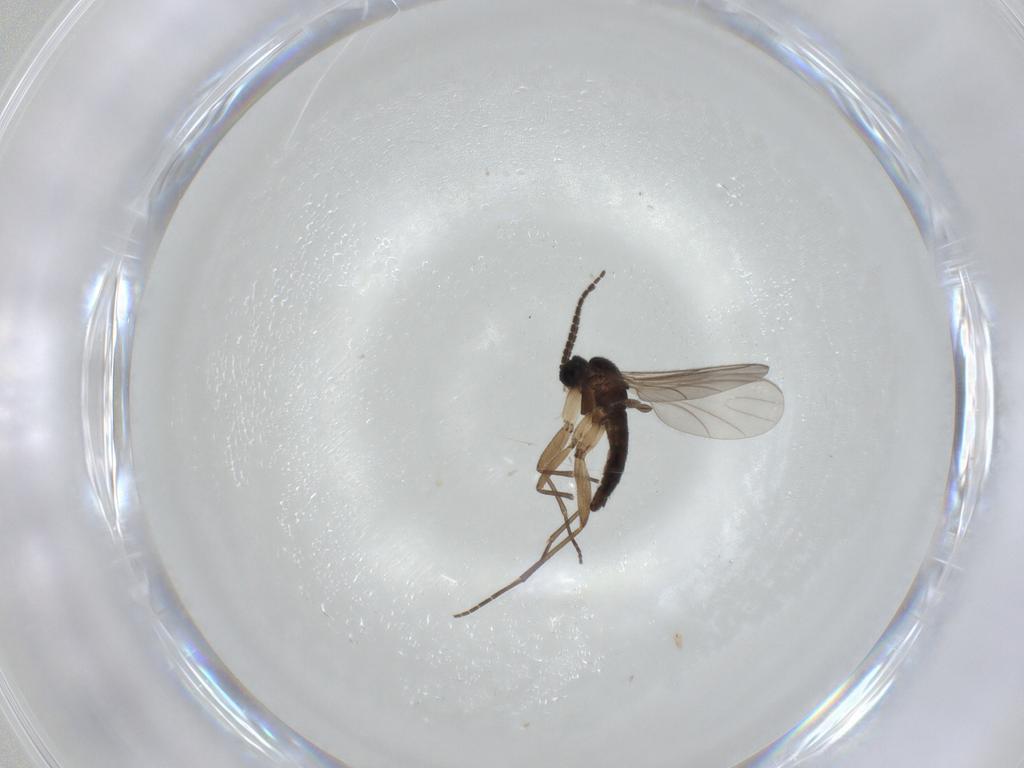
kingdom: Animalia
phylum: Arthropoda
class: Insecta
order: Diptera
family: Sciaridae
